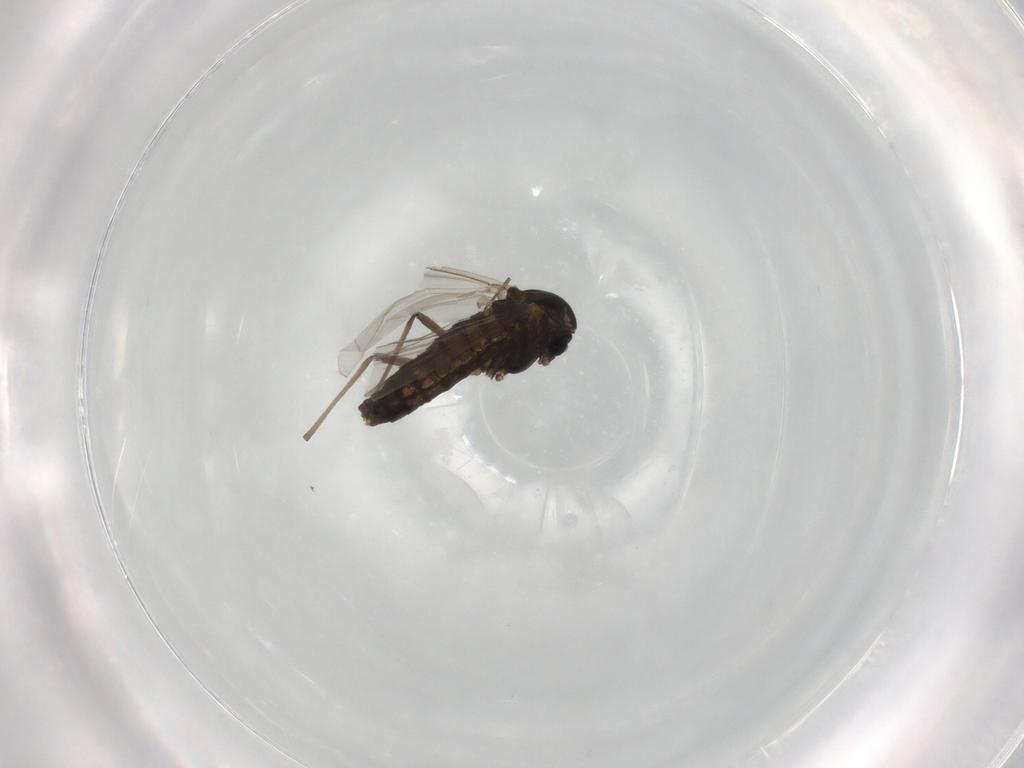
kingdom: Animalia
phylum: Arthropoda
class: Insecta
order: Diptera
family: Chironomidae
